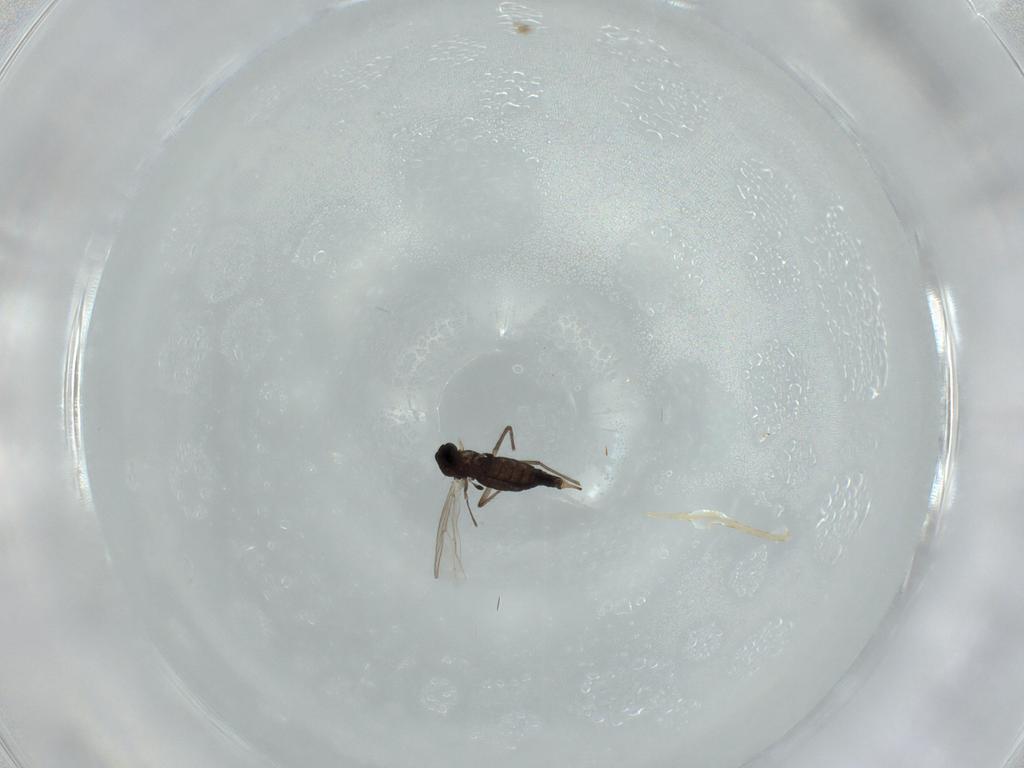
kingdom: Animalia
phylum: Arthropoda
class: Insecta
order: Diptera
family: Chironomidae
